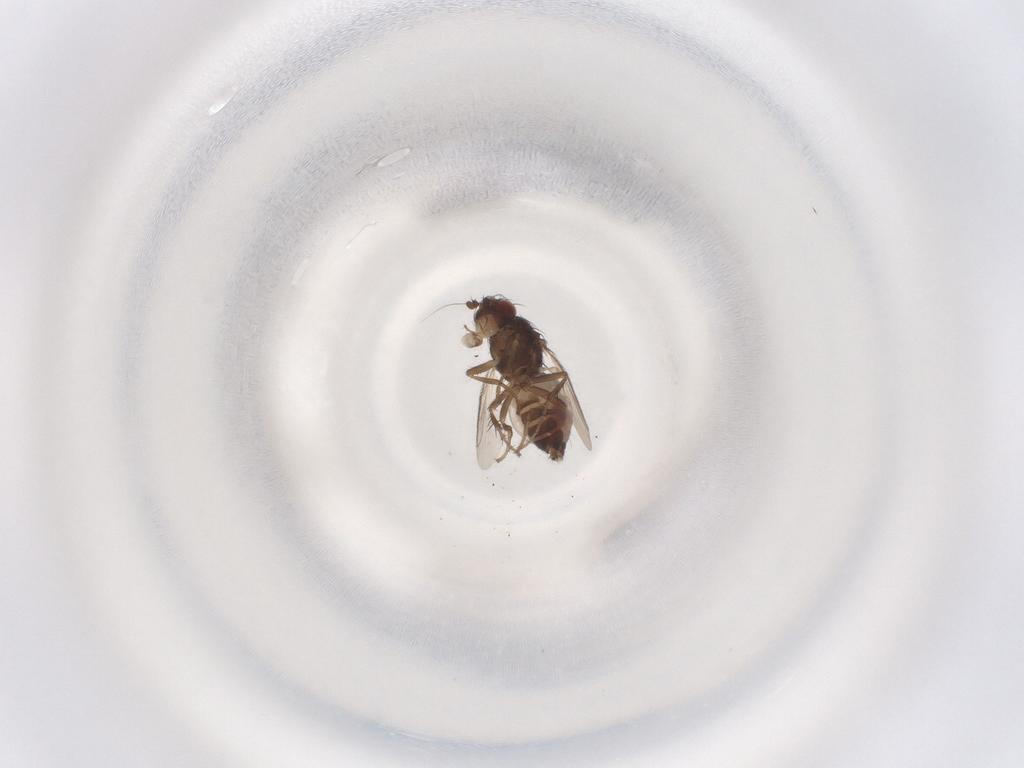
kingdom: Animalia
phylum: Arthropoda
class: Insecta
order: Diptera
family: Sphaeroceridae
